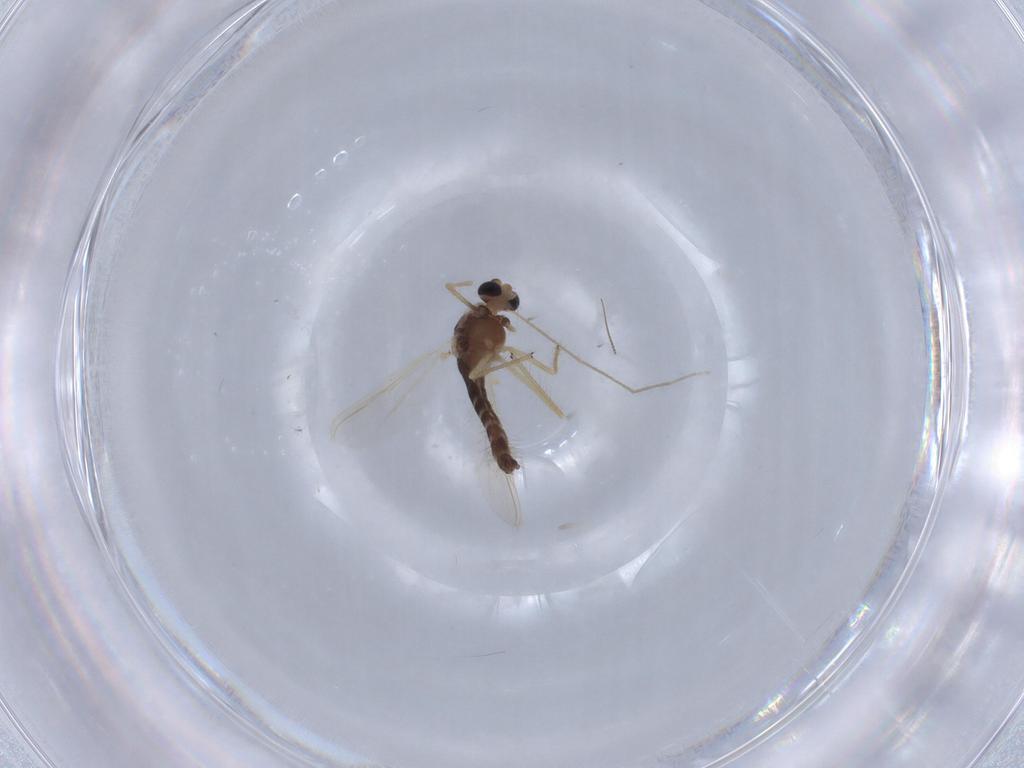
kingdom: Animalia
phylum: Arthropoda
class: Insecta
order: Diptera
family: Chironomidae
